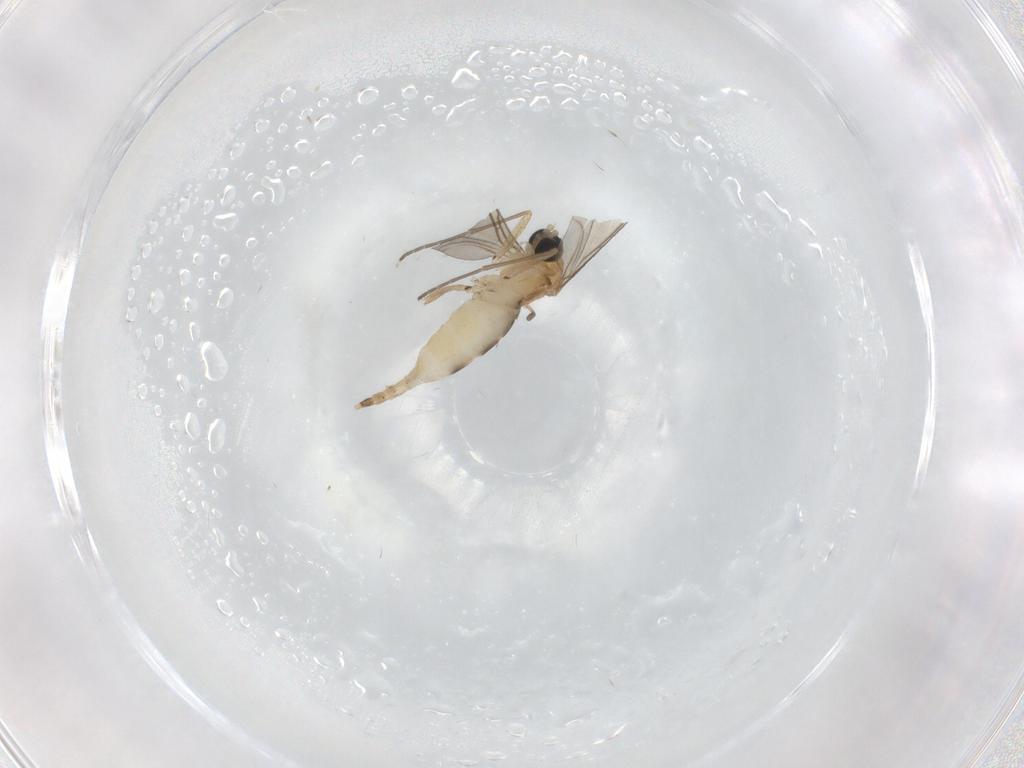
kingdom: Animalia
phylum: Arthropoda
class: Insecta
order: Diptera
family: Sciaridae
